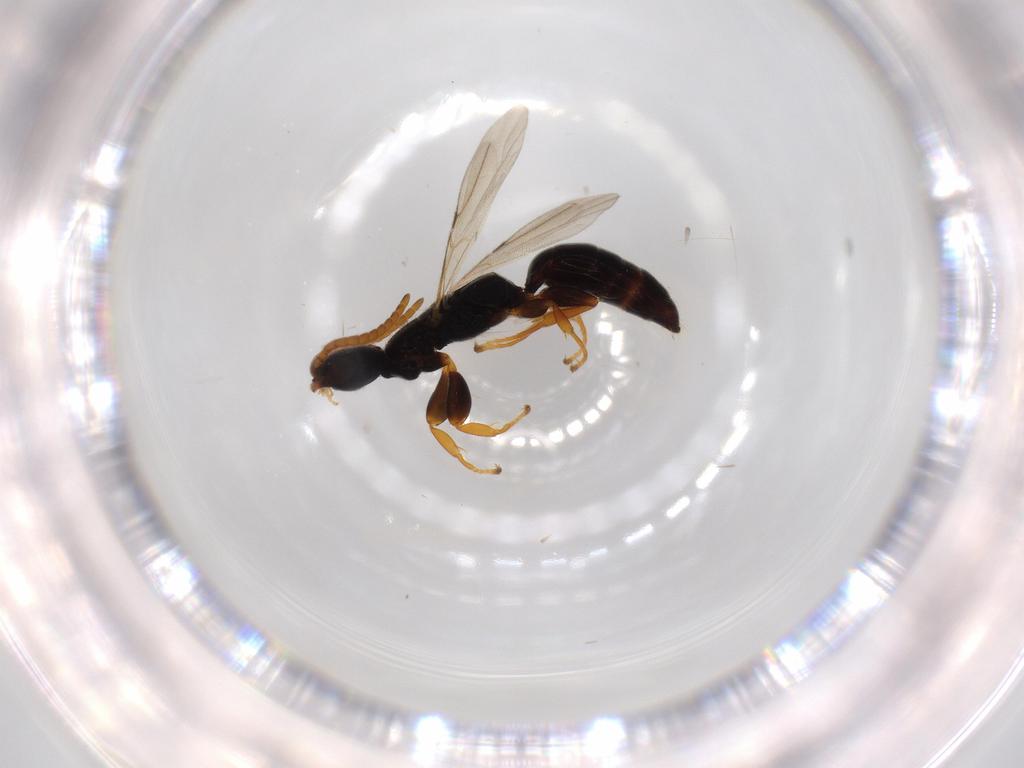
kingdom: Animalia
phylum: Arthropoda
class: Insecta
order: Hymenoptera
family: Bethylidae
